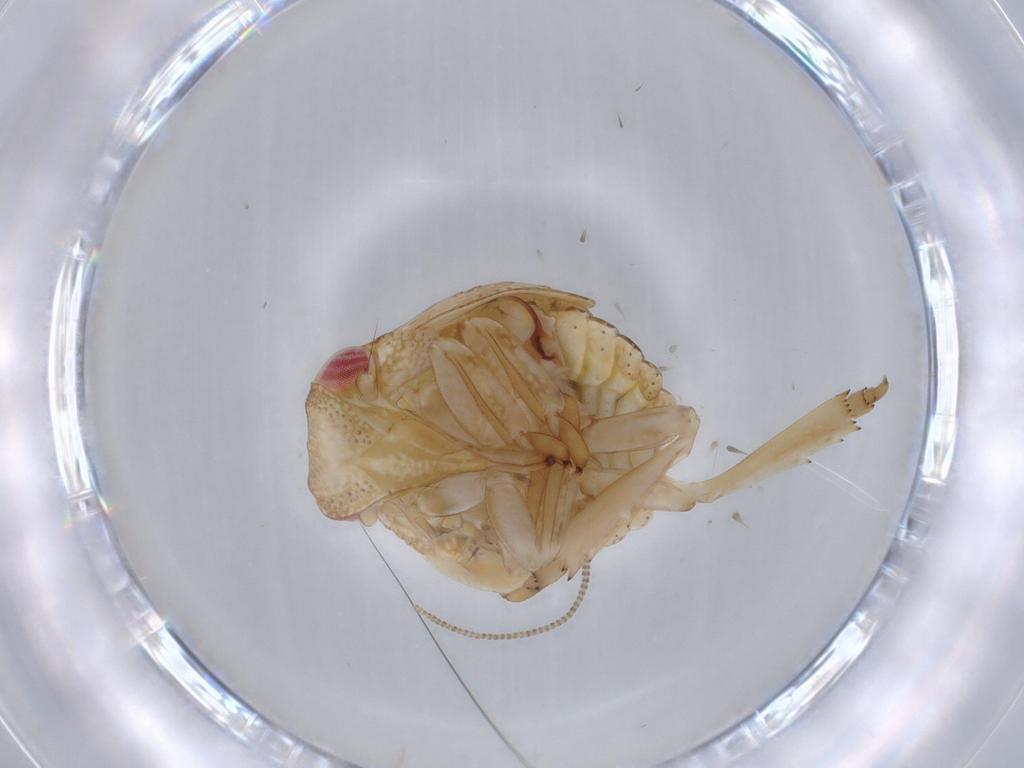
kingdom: Animalia
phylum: Arthropoda
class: Insecta
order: Hemiptera
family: Acanaloniidae
